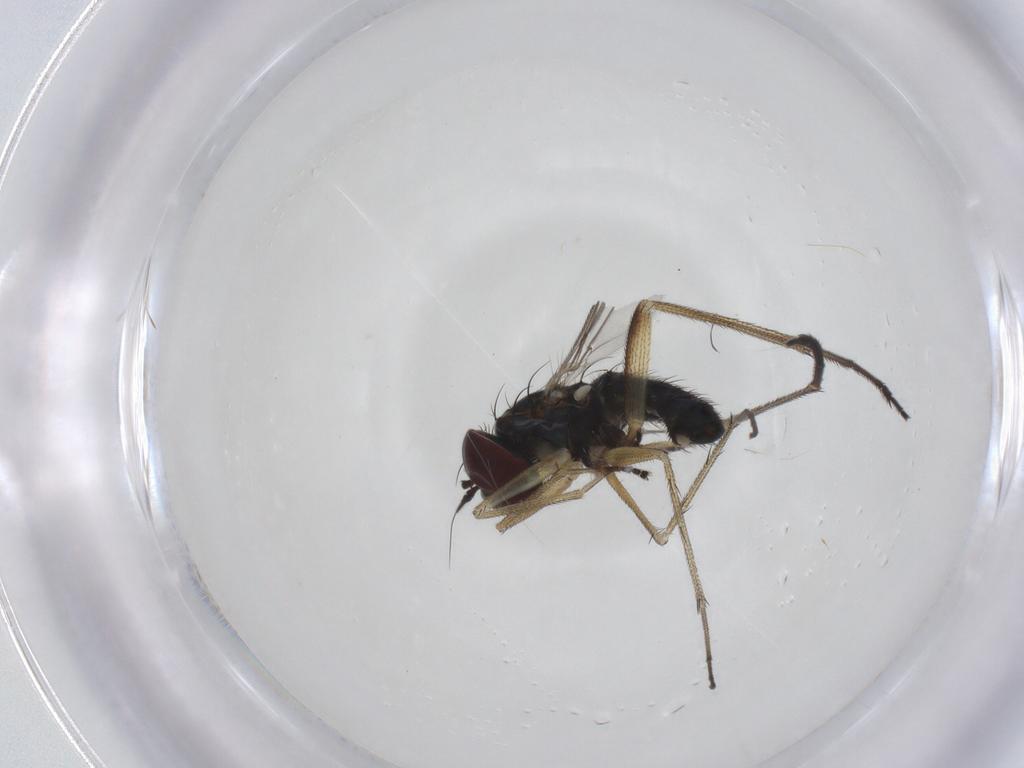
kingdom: Animalia
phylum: Arthropoda
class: Insecta
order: Diptera
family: Dolichopodidae
